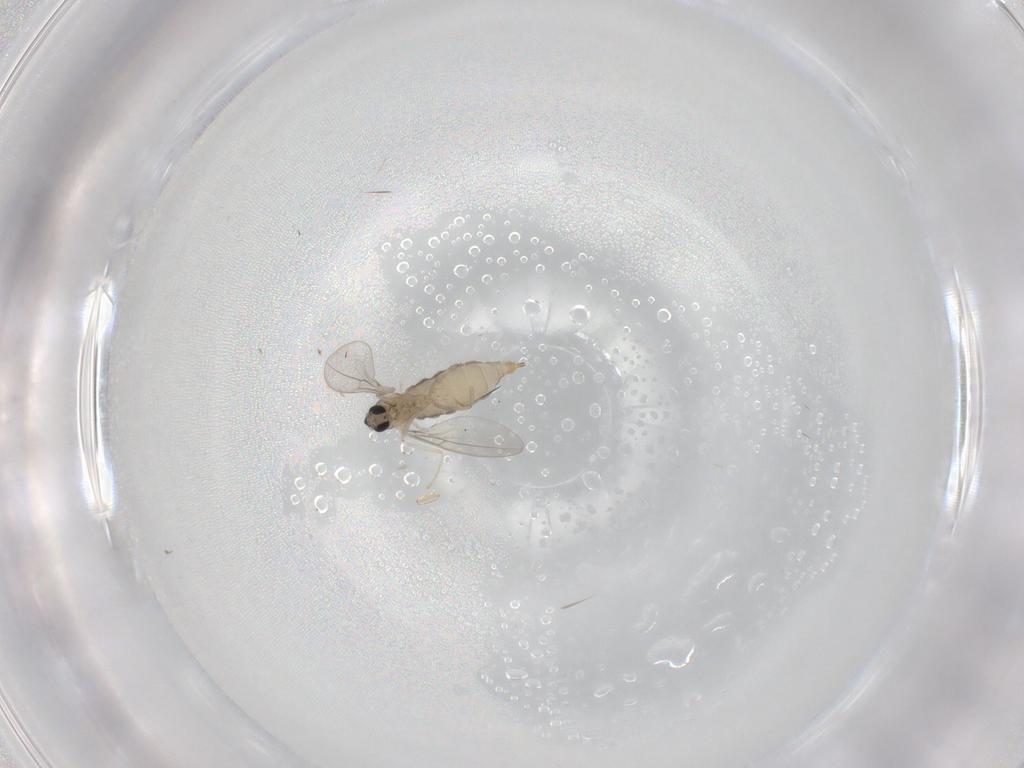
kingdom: Animalia
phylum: Arthropoda
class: Insecta
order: Diptera
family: Cecidomyiidae
